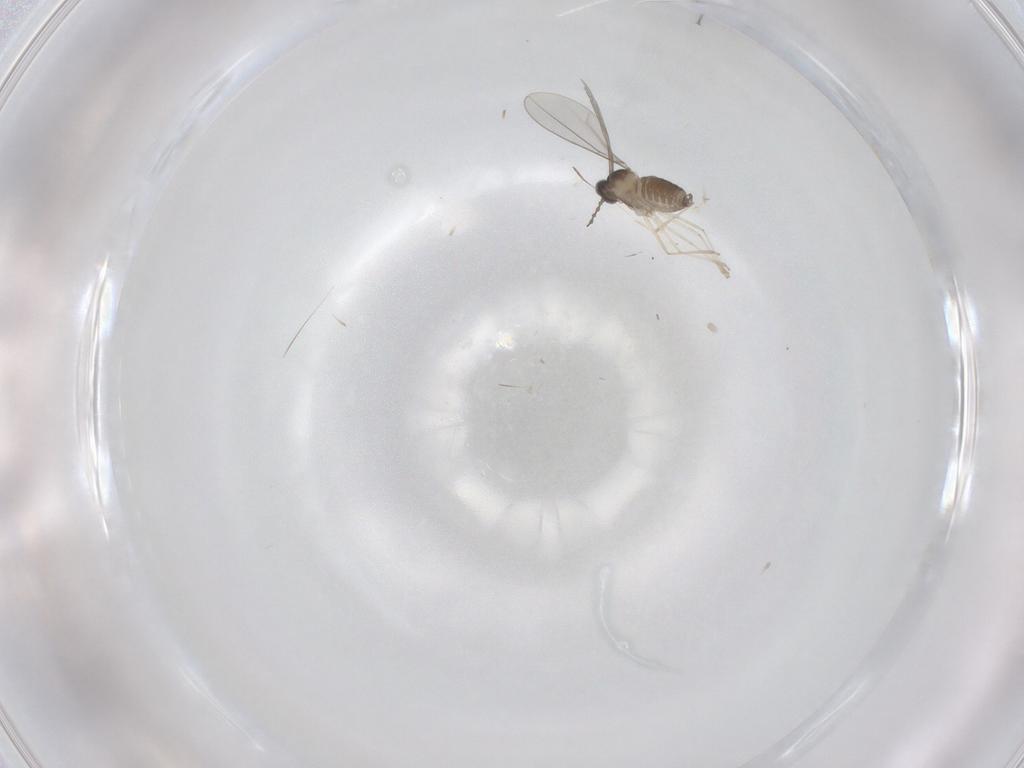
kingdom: Animalia
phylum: Arthropoda
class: Insecta
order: Diptera
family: Cecidomyiidae
